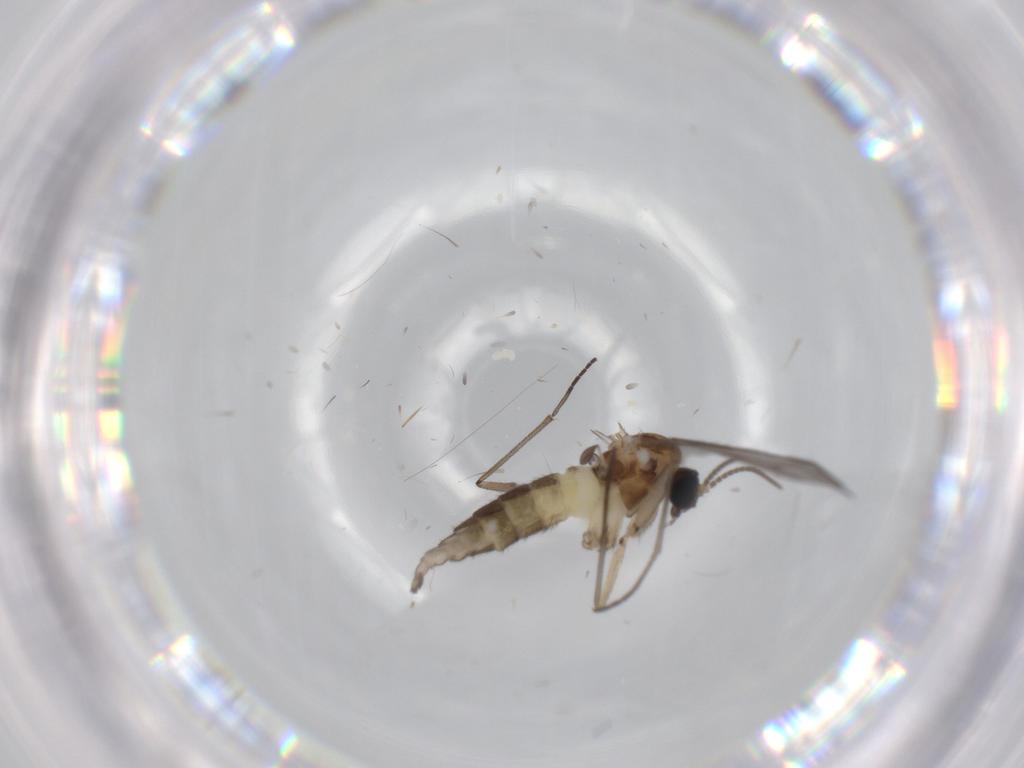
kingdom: Animalia
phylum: Arthropoda
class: Insecta
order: Diptera
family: Sciaridae
